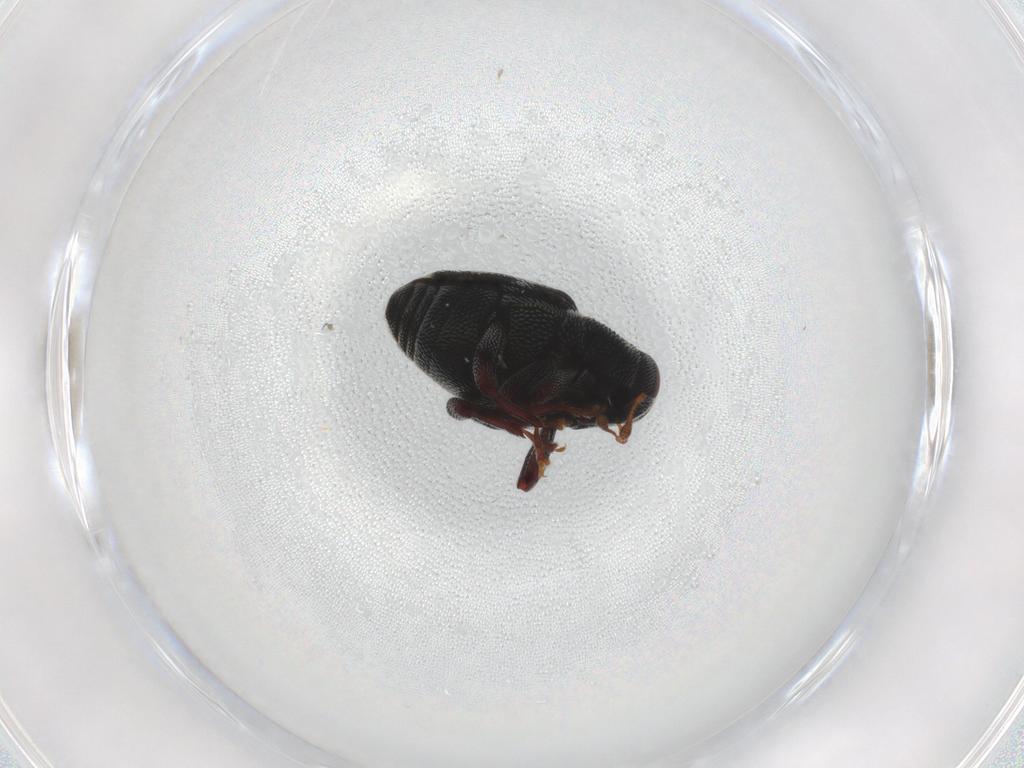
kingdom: Animalia
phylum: Arthropoda
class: Insecta
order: Coleoptera
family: Curculionidae
